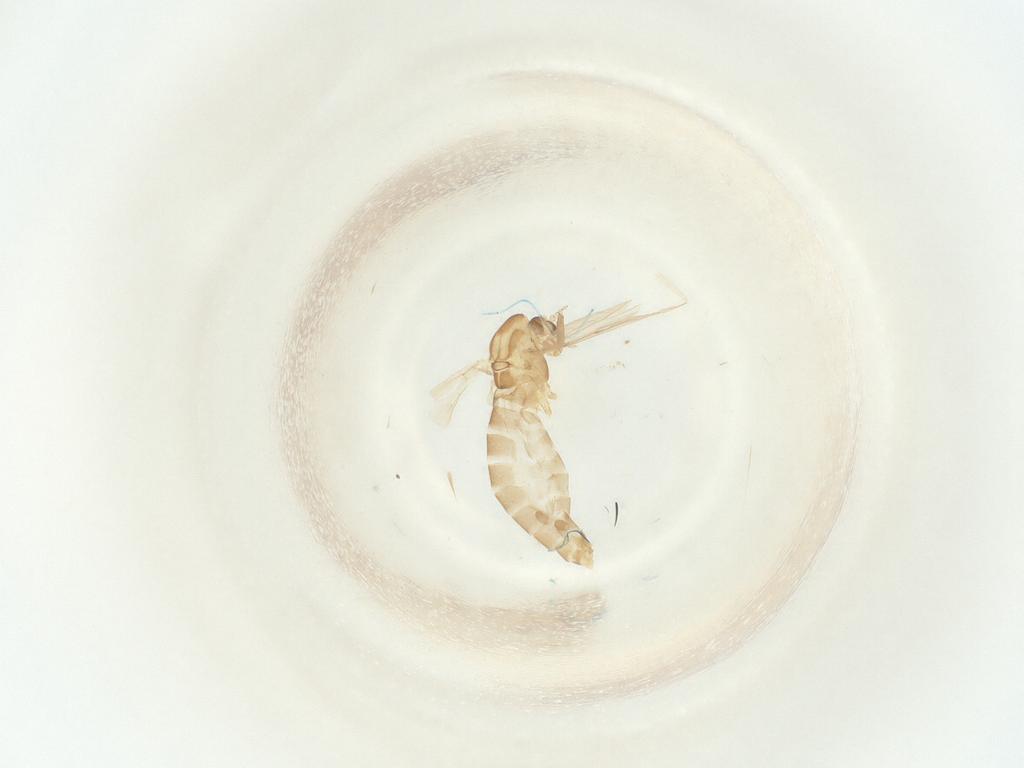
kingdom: Animalia
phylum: Arthropoda
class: Insecta
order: Diptera
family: Chironomidae
